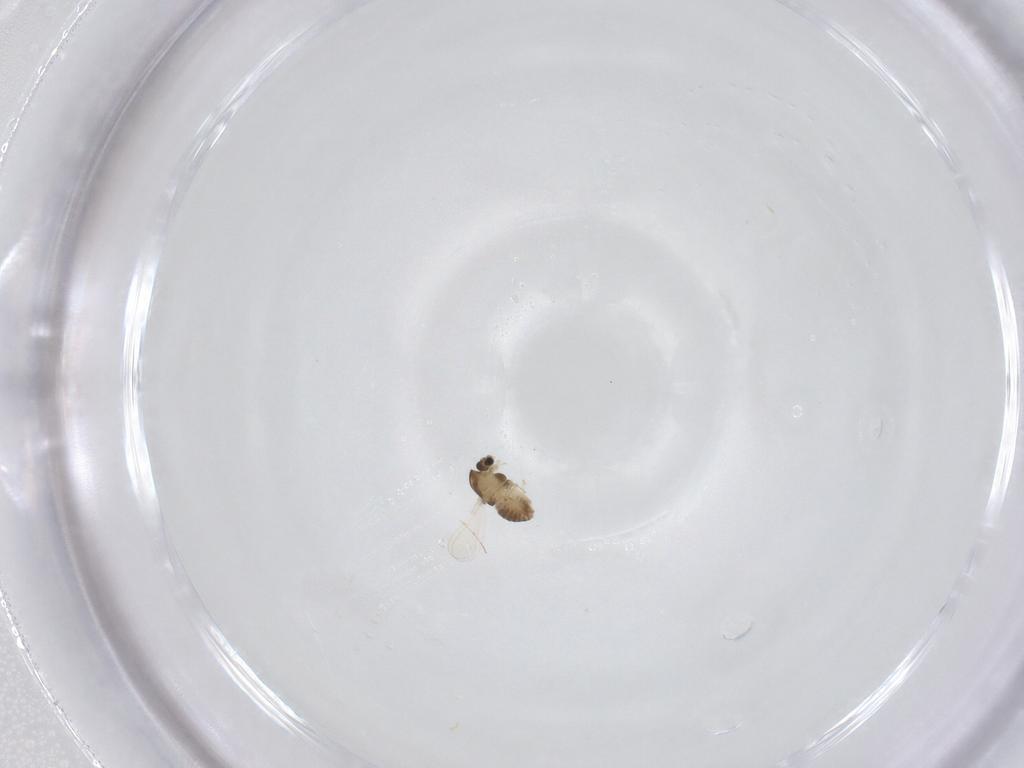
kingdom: Animalia
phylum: Arthropoda
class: Insecta
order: Diptera
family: Chironomidae
